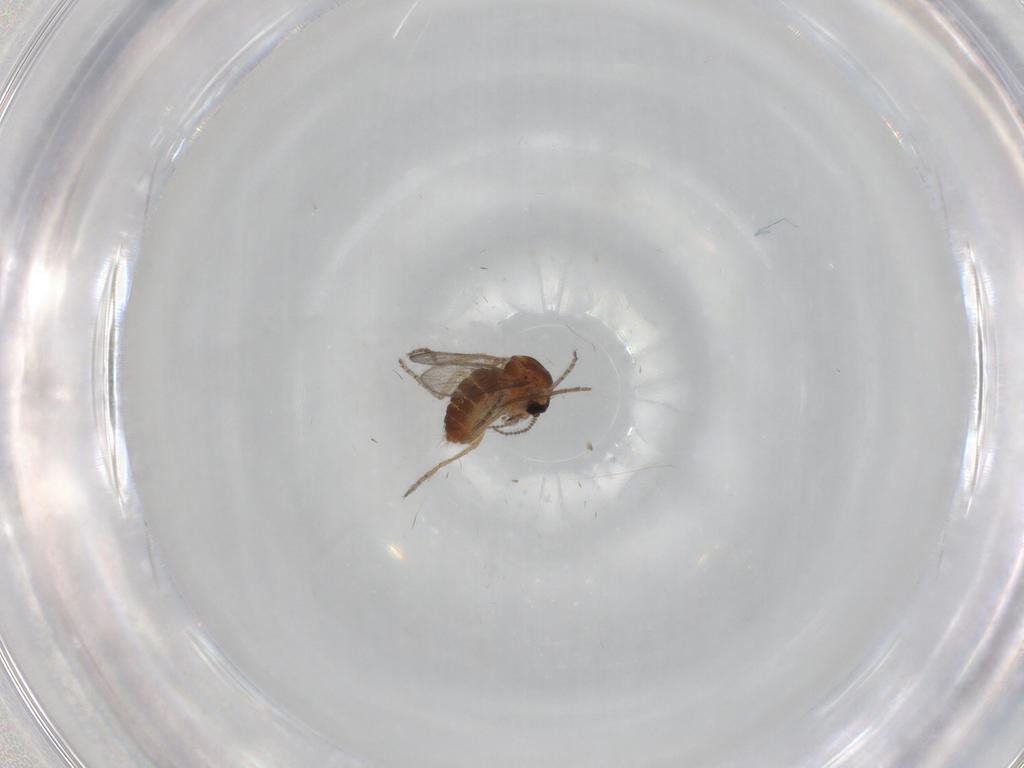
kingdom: Animalia
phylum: Arthropoda
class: Insecta
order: Diptera
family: Ceratopogonidae
